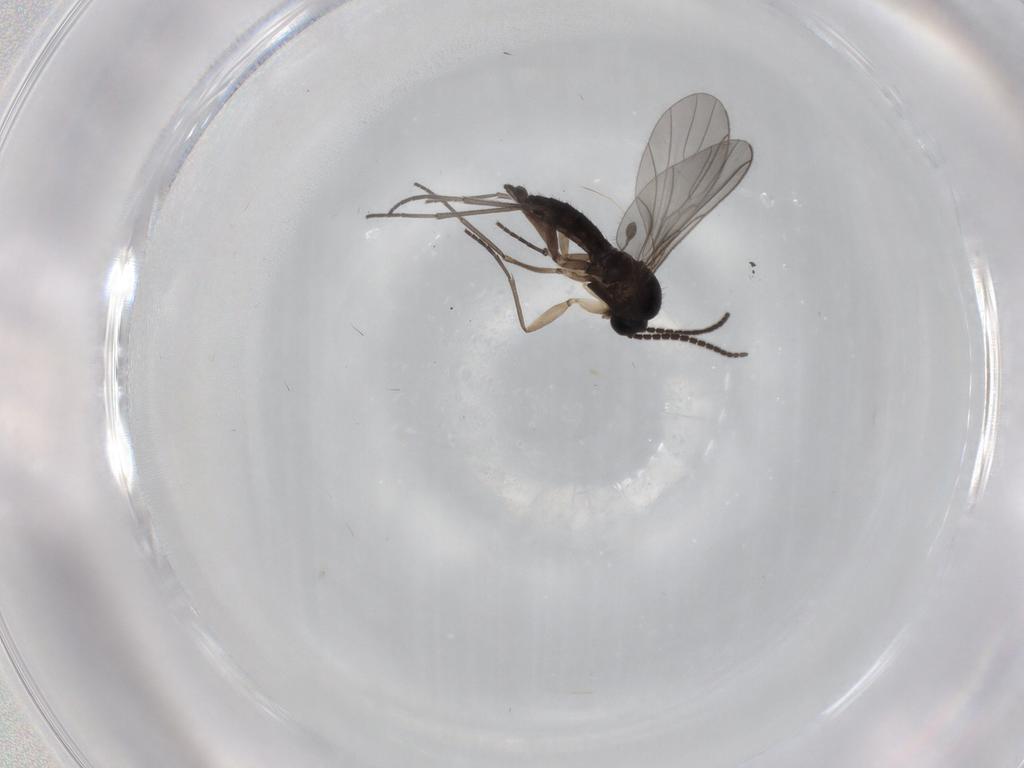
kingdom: Animalia
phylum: Arthropoda
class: Insecta
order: Diptera
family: Sciaridae
